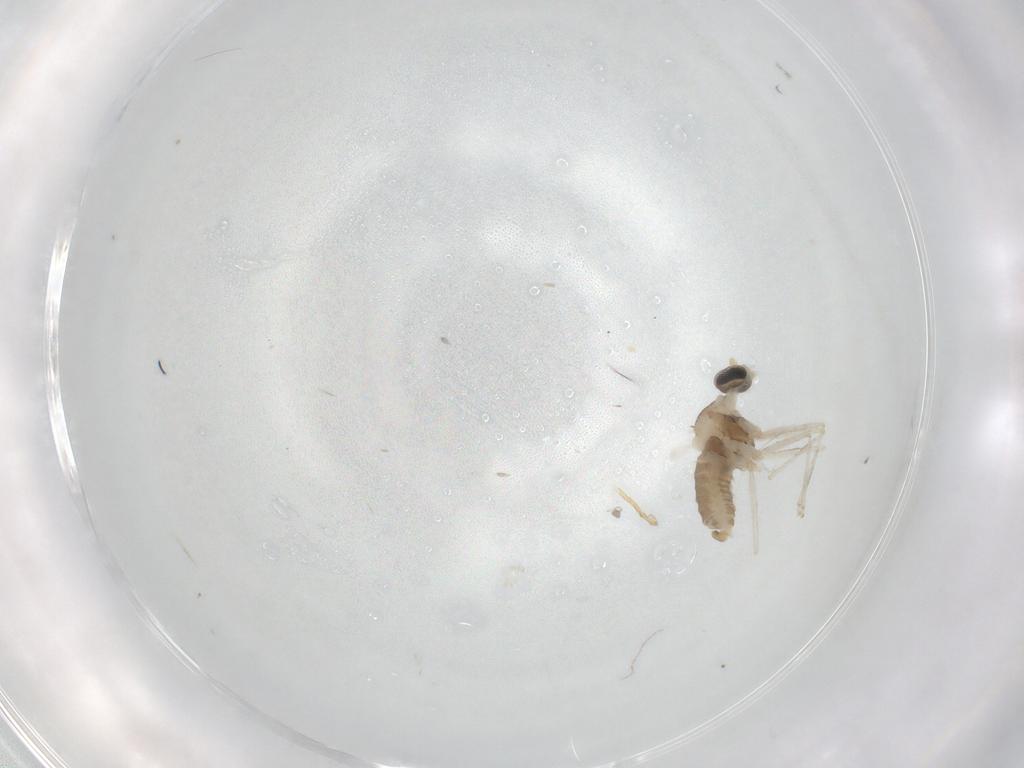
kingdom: Animalia
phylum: Arthropoda
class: Insecta
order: Diptera
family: Cecidomyiidae
